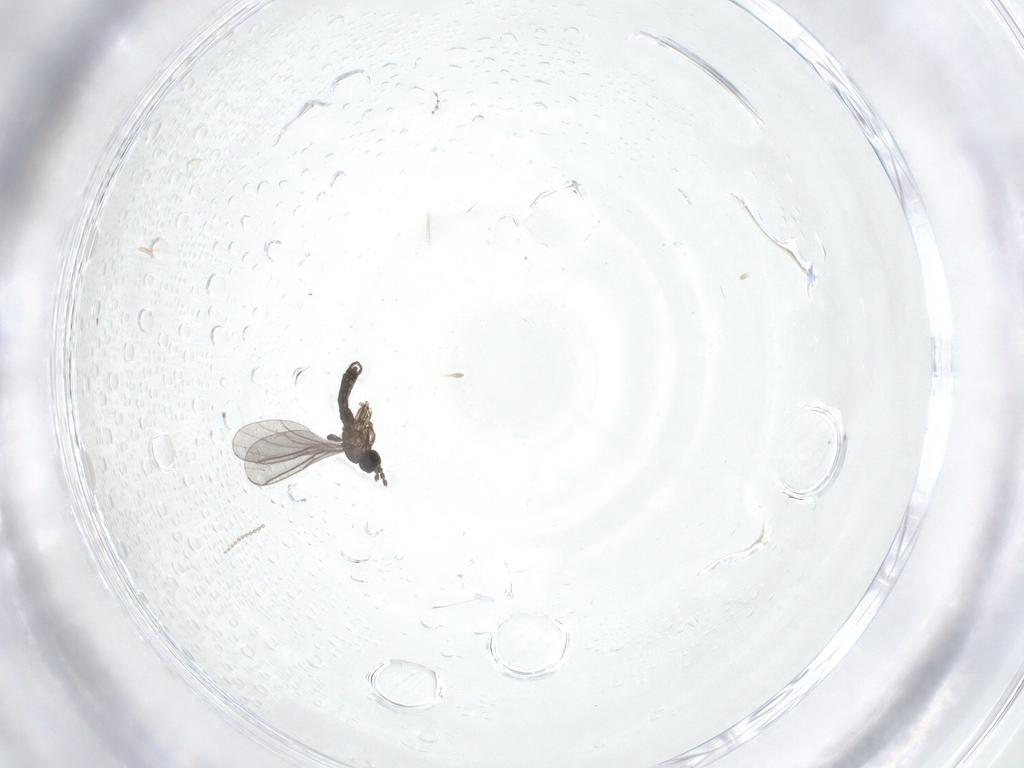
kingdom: Animalia
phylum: Arthropoda
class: Insecta
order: Diptera
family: Cecidomyiidae
